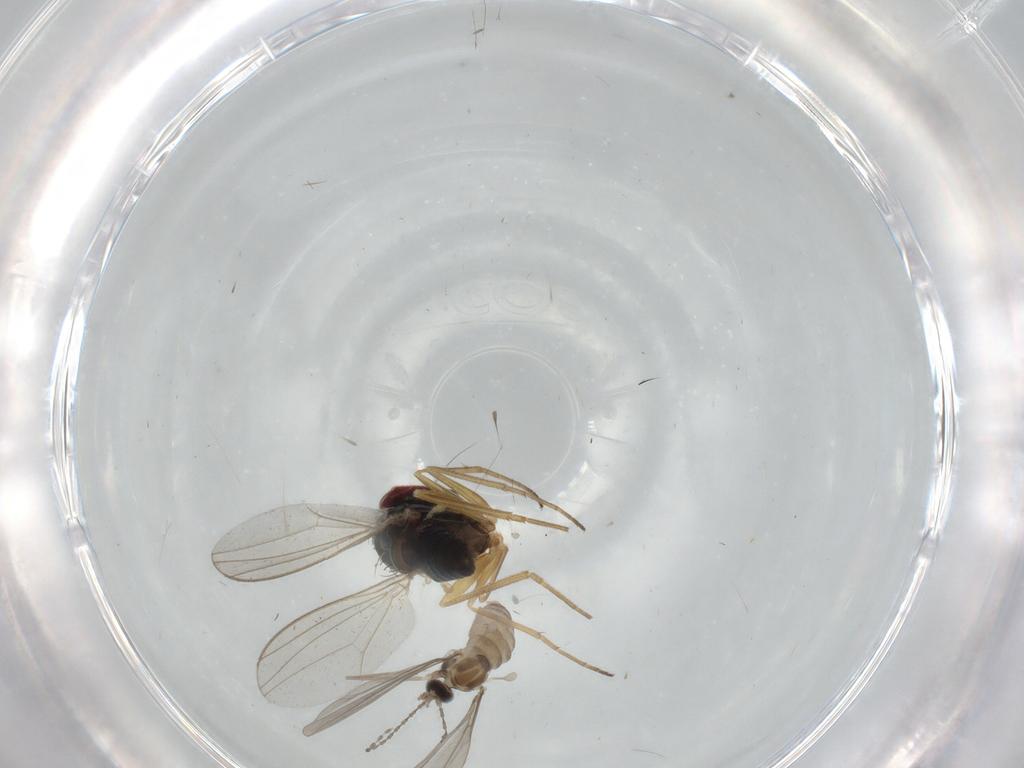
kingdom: Animalia
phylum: Arthropoda
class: Insecta
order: Diptera
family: Cecidomyiidae
